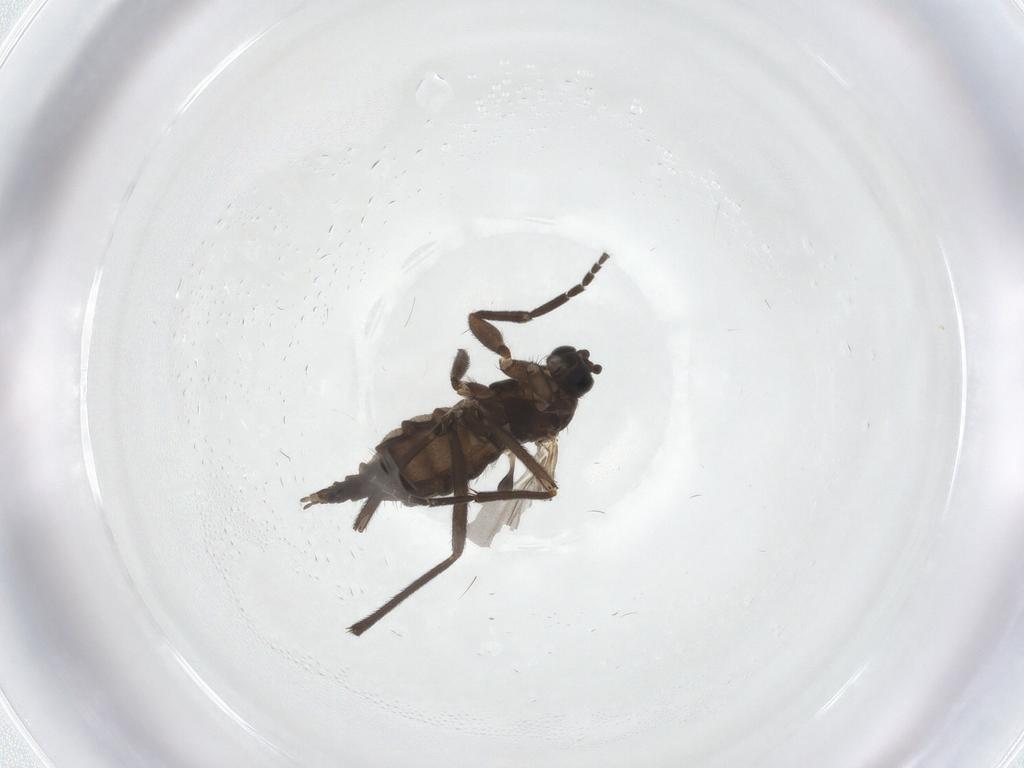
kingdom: Animalia
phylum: Arthropoda
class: Insecta
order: Diptera
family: Sciaridae
